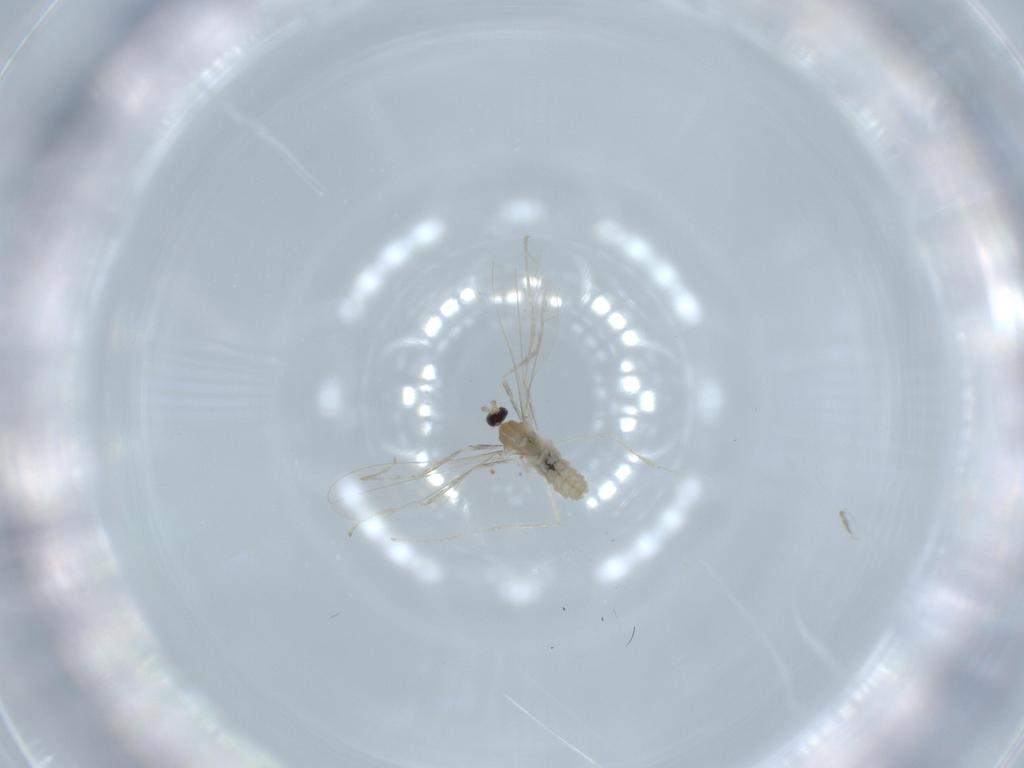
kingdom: Animalia
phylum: Arthropoda
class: Insecta
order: Diptera
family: Cecidomyiidae
